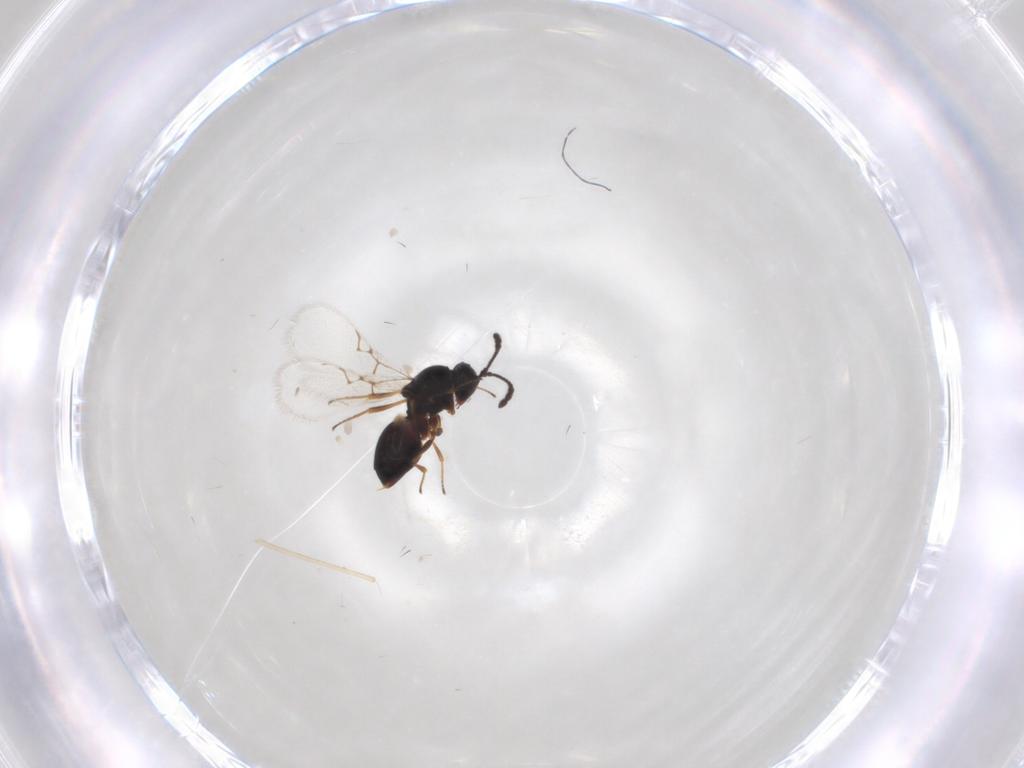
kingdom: Animalia
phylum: Arthropoda
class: Insecta
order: Hymenoptera
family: Figitidae
